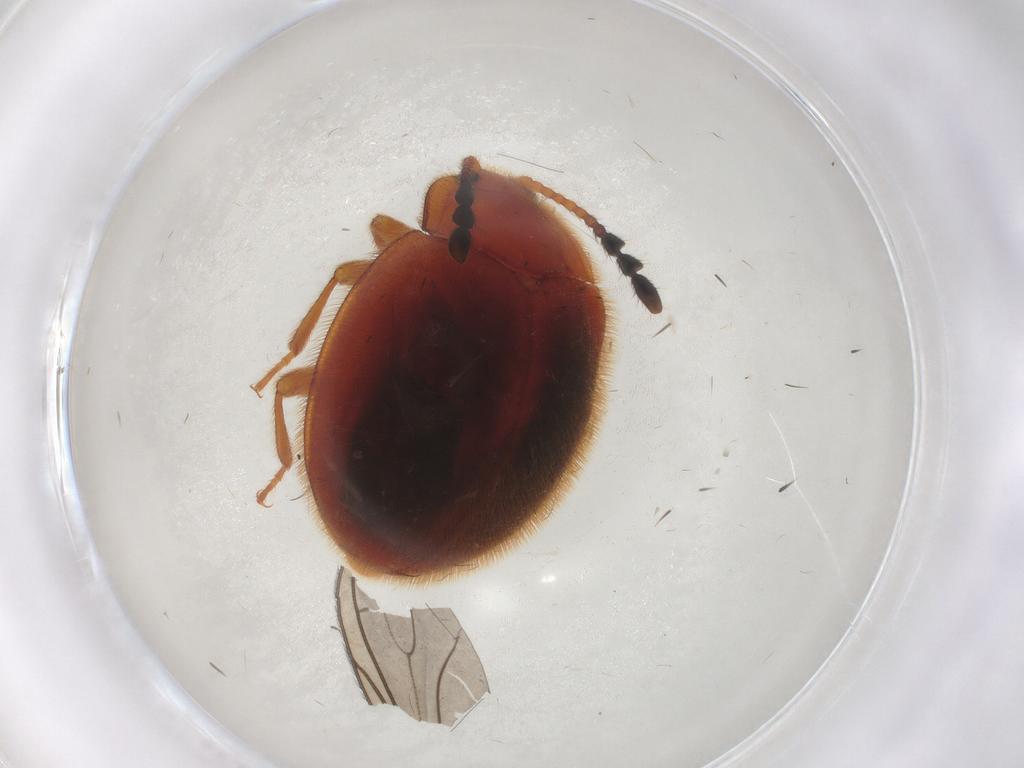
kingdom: Animalia
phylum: Arthropoda
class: Insecta
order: Coleoptera
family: Endomychidae
